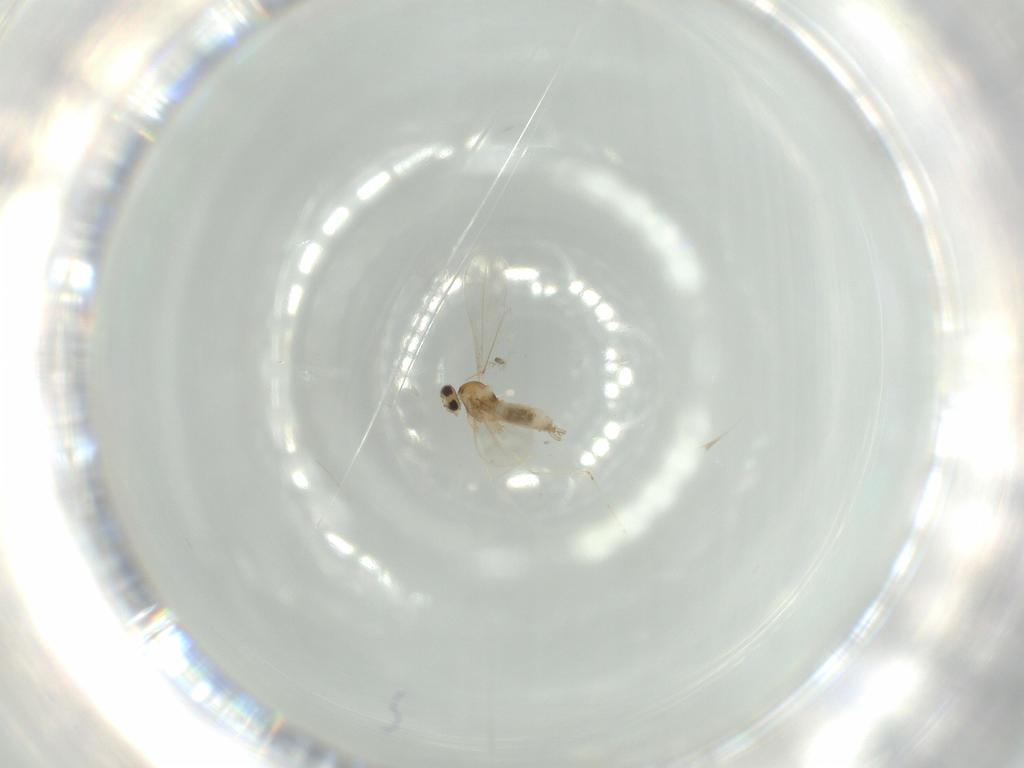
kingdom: Animalia
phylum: Arthropoda
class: Insecta
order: Diptera
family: Cecidomyiidae
